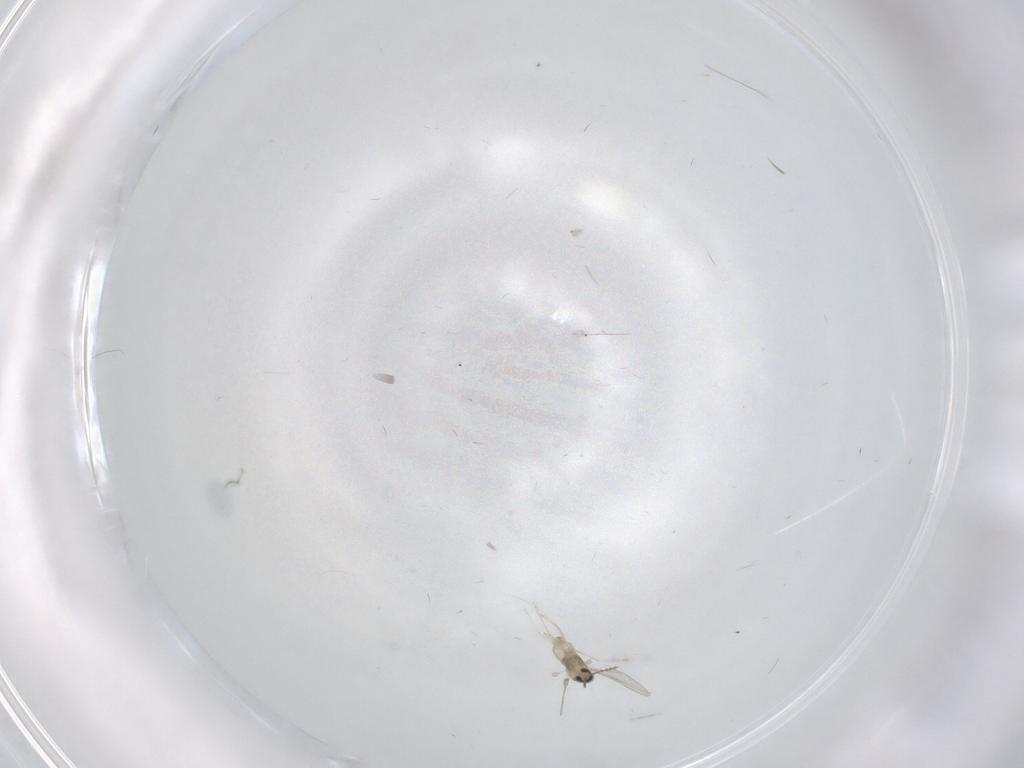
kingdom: Animalia
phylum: Arthropoda
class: Insecta
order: Diptera
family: Cecidomyiidae
